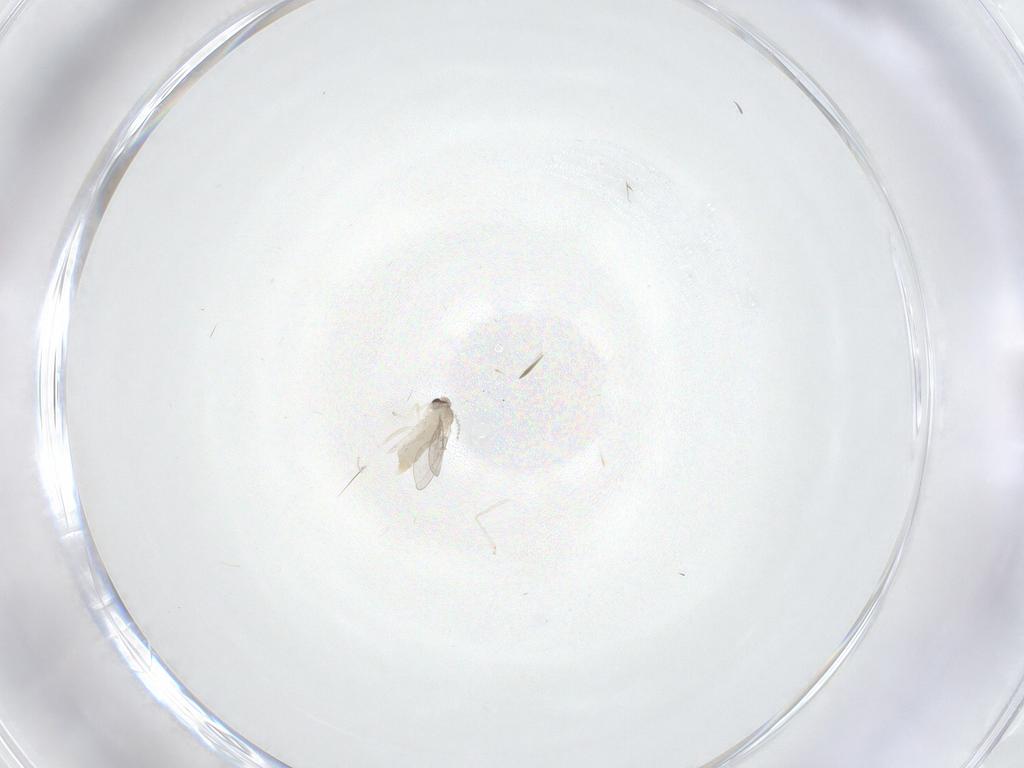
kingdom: Animalia
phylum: Arthropoda
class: Insecta
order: Diptera
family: Cecidomyiidae
